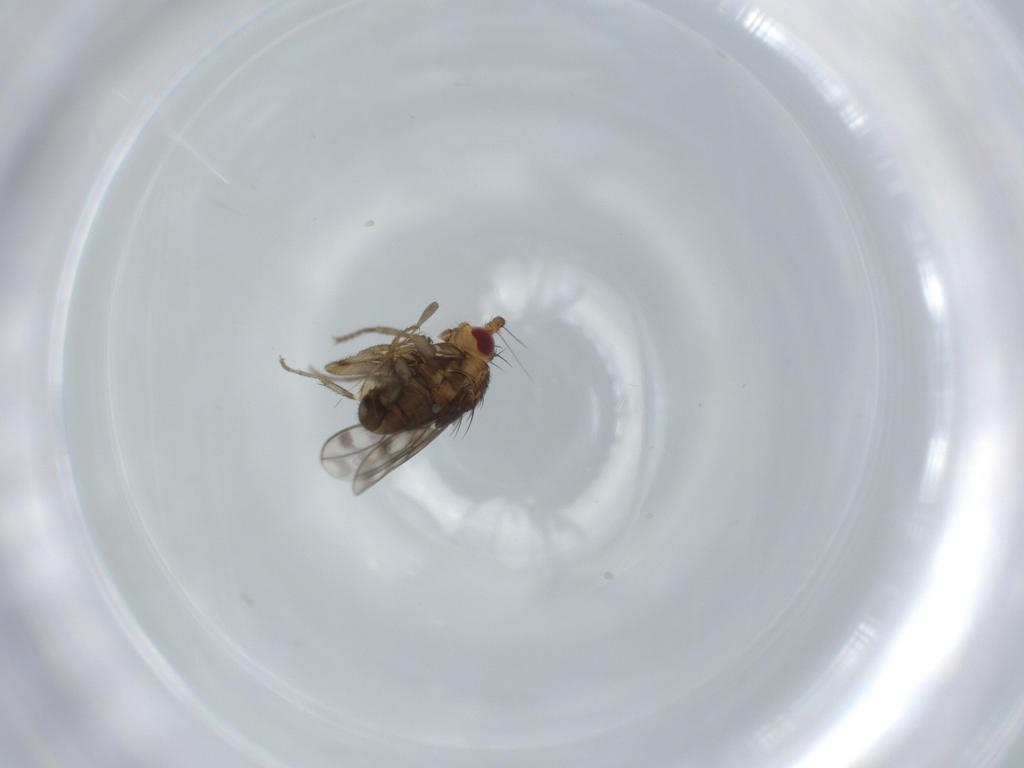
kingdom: Animalia
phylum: Arthropoda
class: Insecta
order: Diptera
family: Sphaeroceridae
